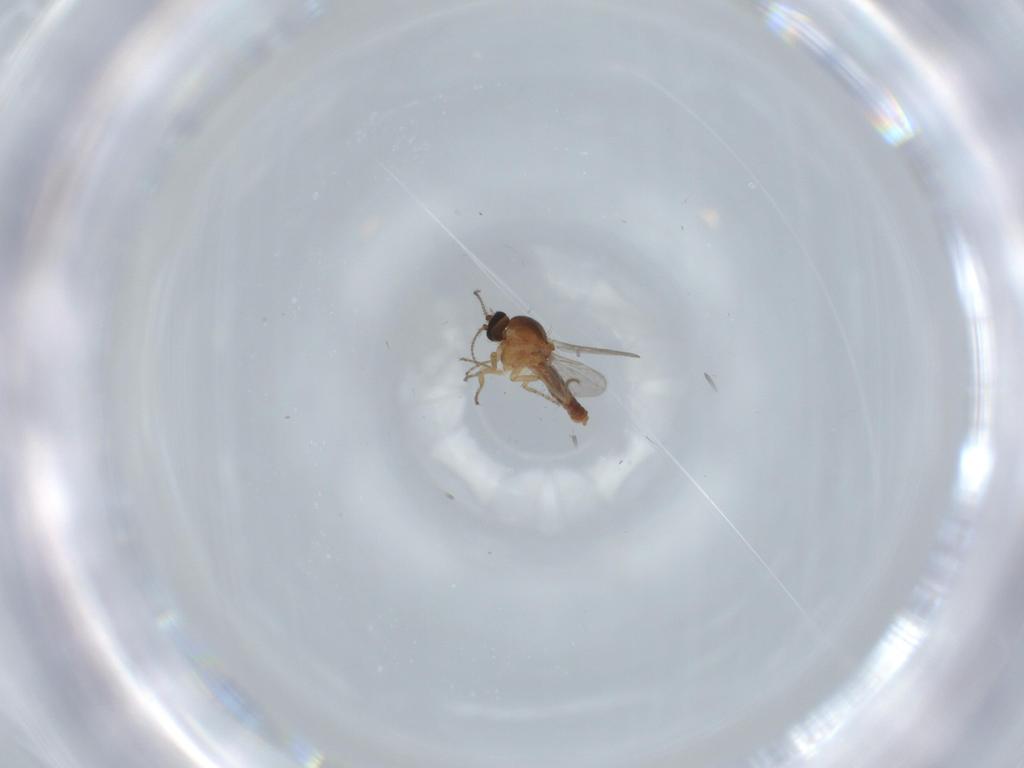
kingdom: Animalia
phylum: Arthropoda
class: Insecta
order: Diptera
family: Ceratopogonidae
